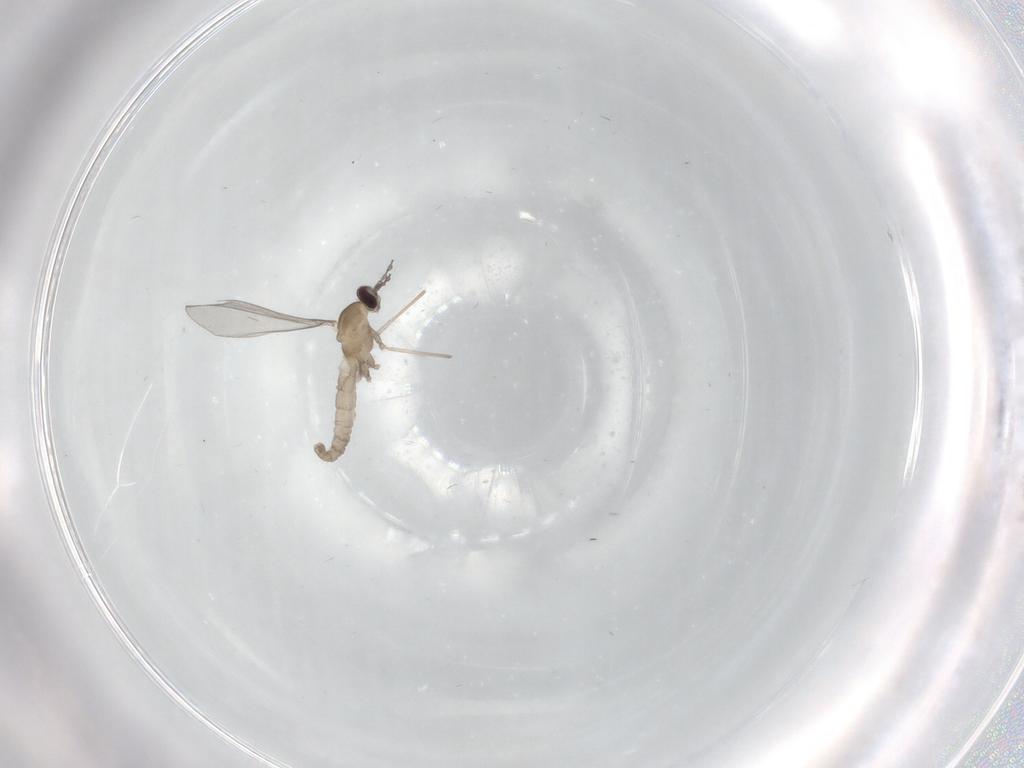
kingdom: Animalia
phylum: Arthropoda
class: Insecta
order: Diptera
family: Cecidomyiidae
